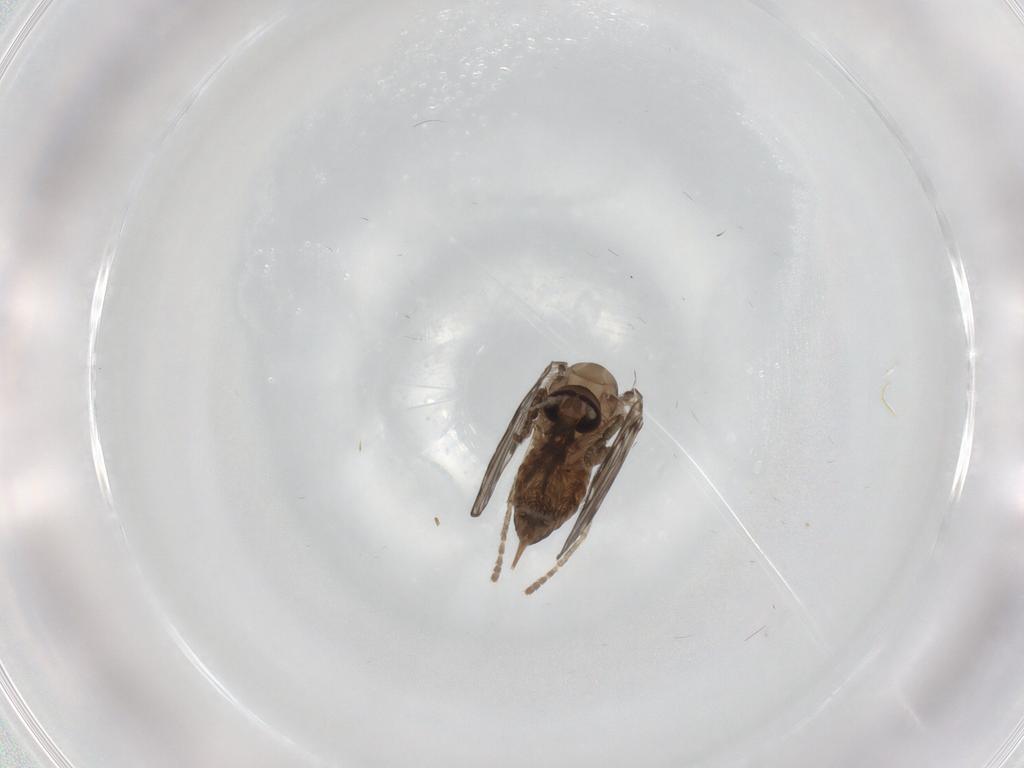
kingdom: Animalia
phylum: Arthropoda
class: Insecta
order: Diptera
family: Psychodidae
